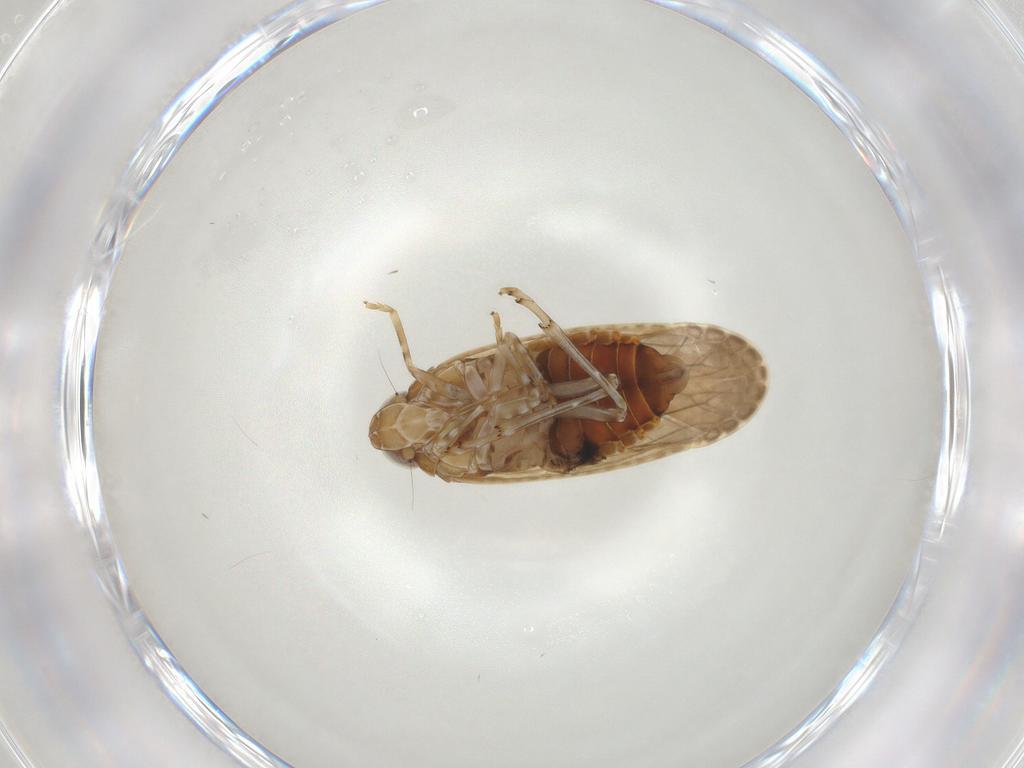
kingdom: Animalia
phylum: Arthropoda
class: Insecta
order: Hemiptera
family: Achilidae
